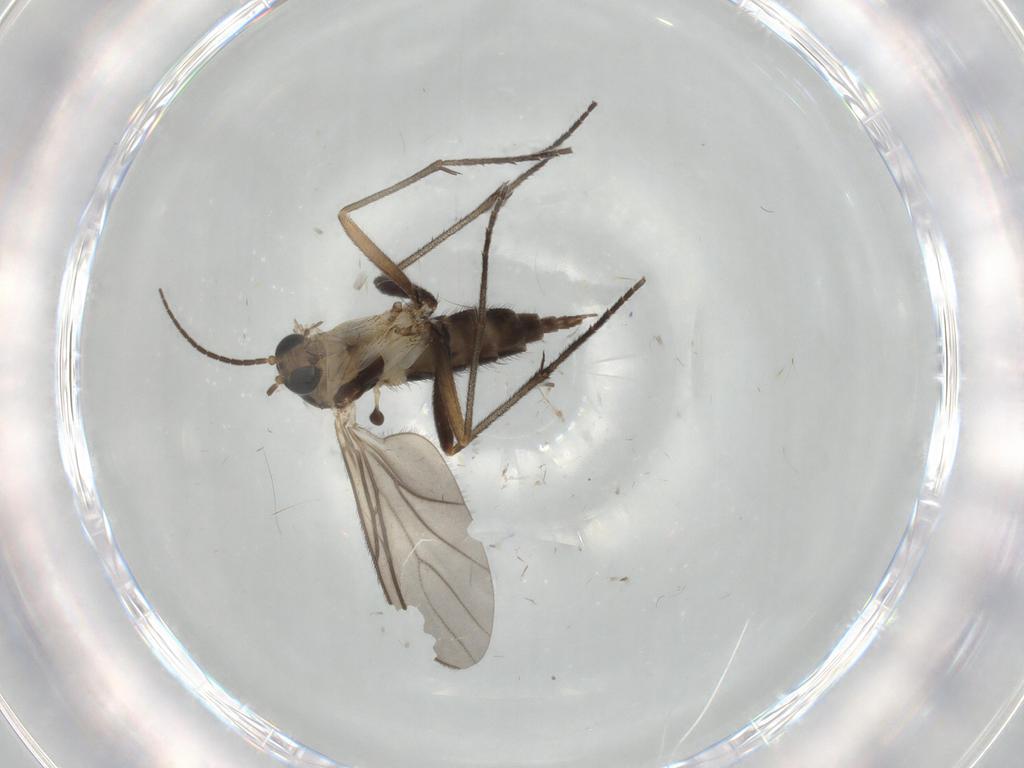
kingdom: Animalia
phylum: Arthropoda
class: Insecta
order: Diptera
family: Chironomidae
